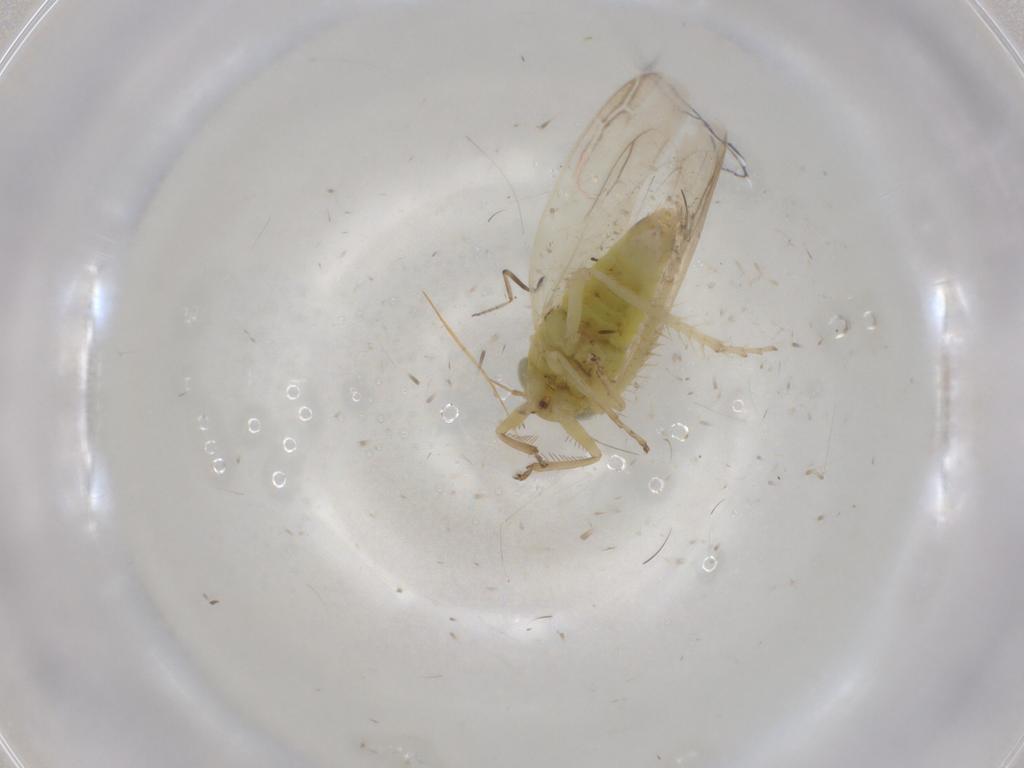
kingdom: Animalia
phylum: Arthropoda
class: Insecta
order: Hemiptera
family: Cicadellidae
